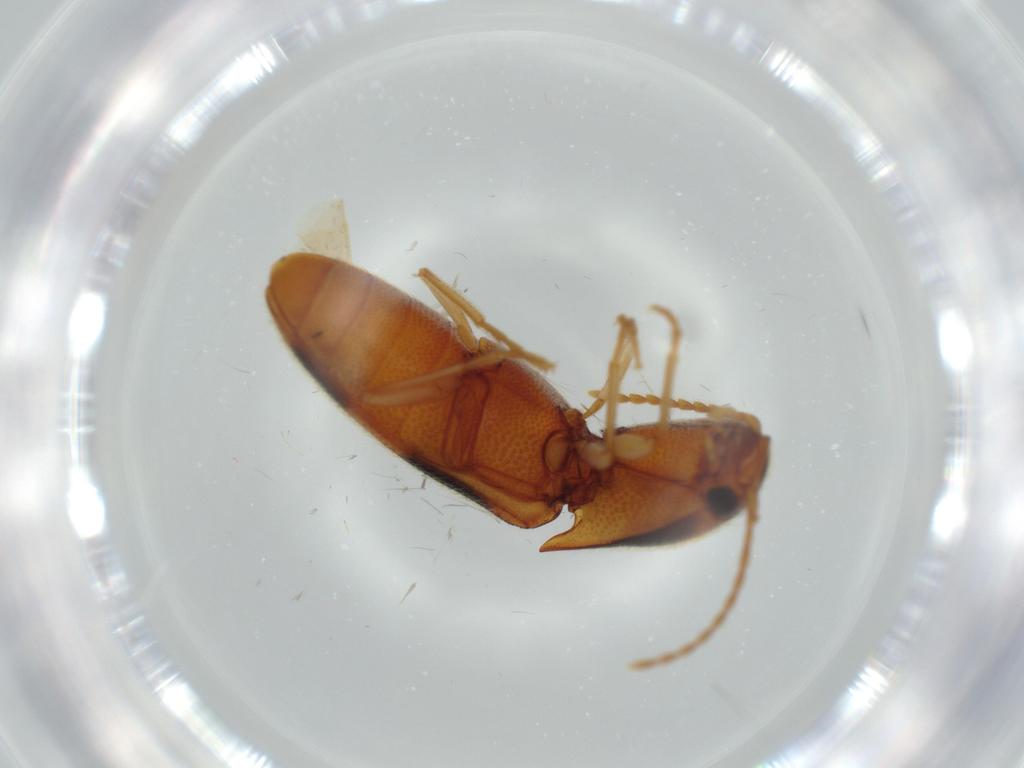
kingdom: Animalia
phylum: Arthropoda
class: Insecta
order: Coleoptera
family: Elateridae
